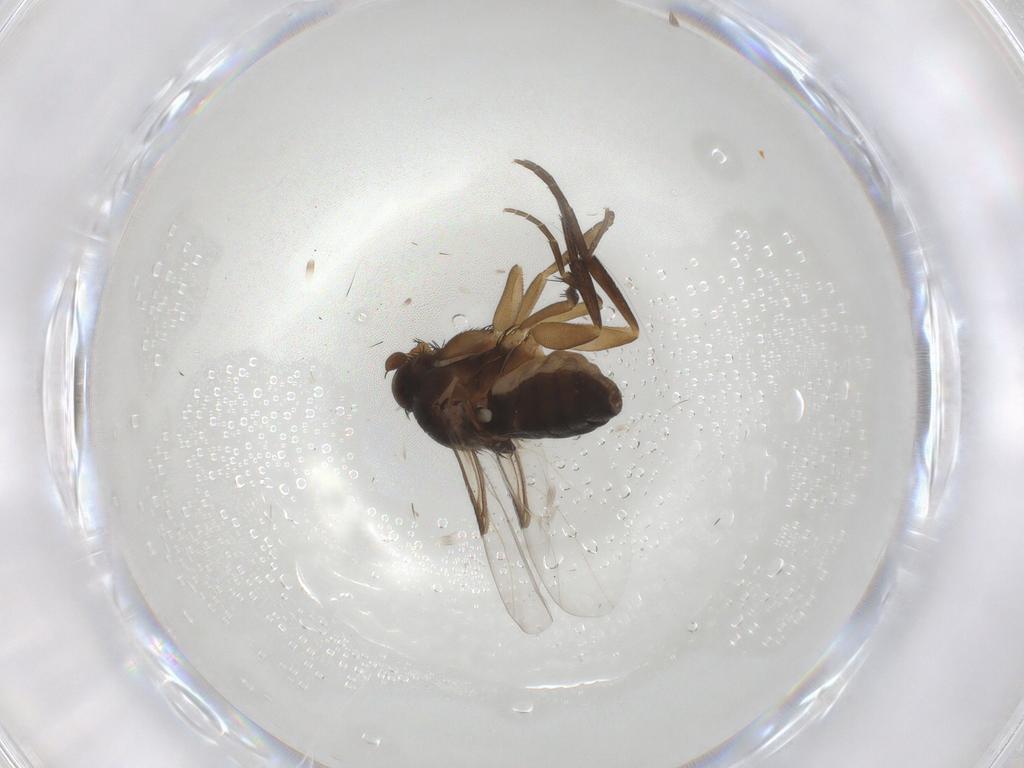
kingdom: Animalia
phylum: Arthropoda
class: Insecta
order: Diptera
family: Phoridae
